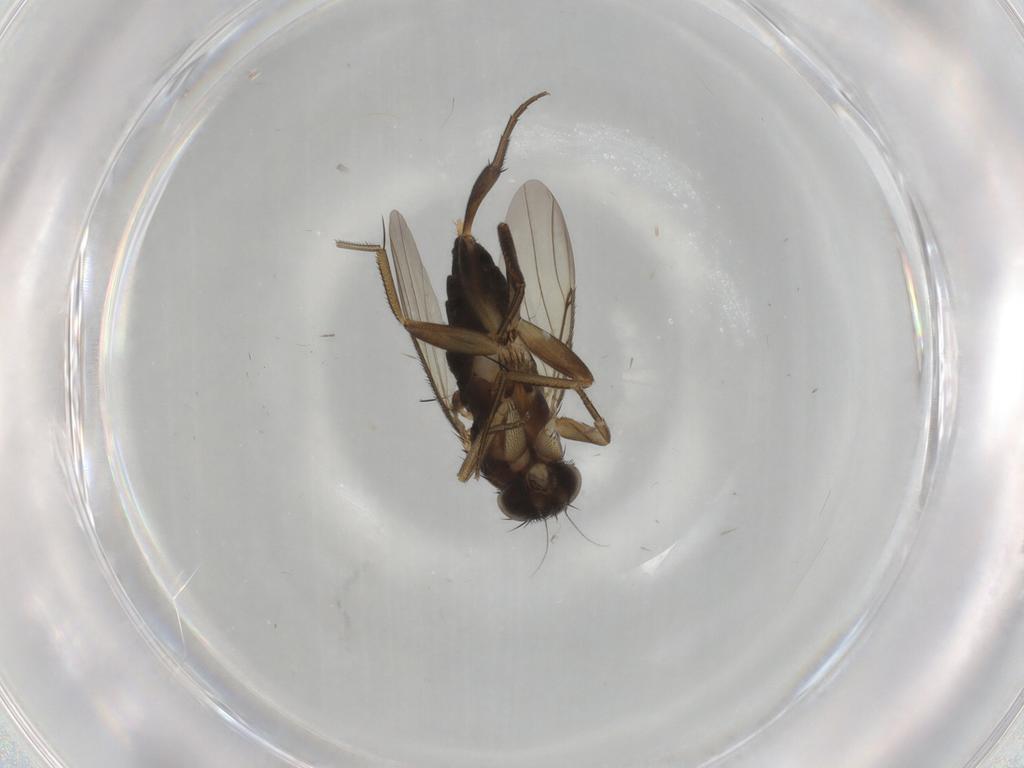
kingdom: Animalia
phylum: Arthropoda
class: Insecta
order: Diptera
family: Phoridae
